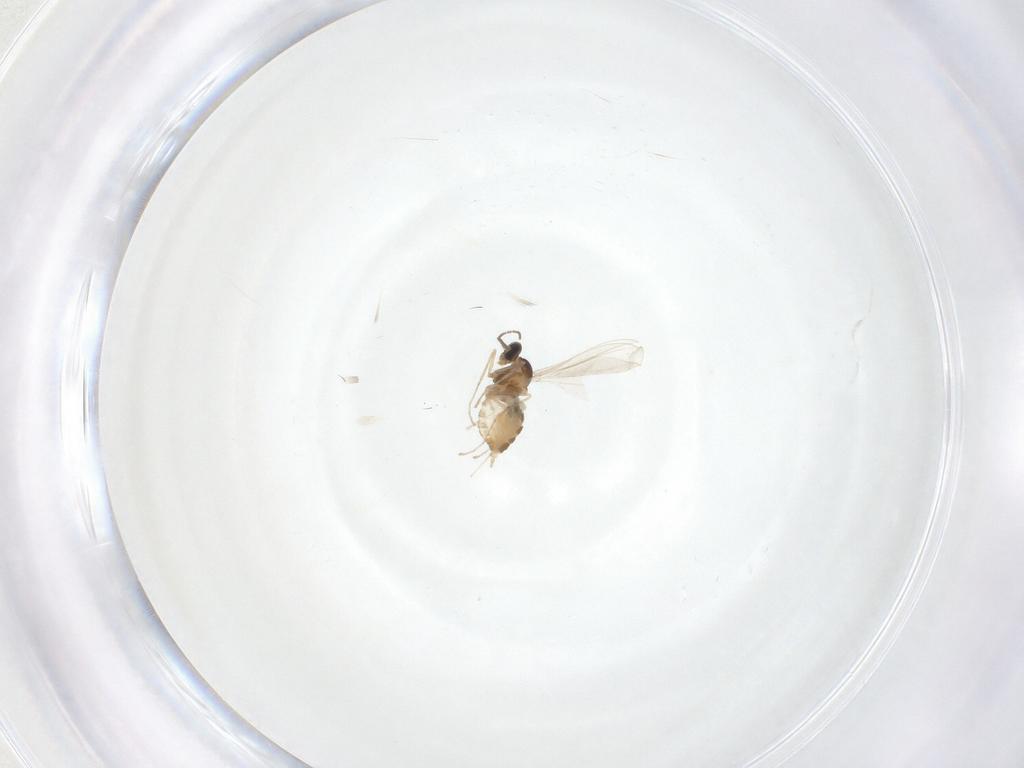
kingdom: Animalia
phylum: Arthropoda
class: Insecta
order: Diptera
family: Cecidomyiidae
